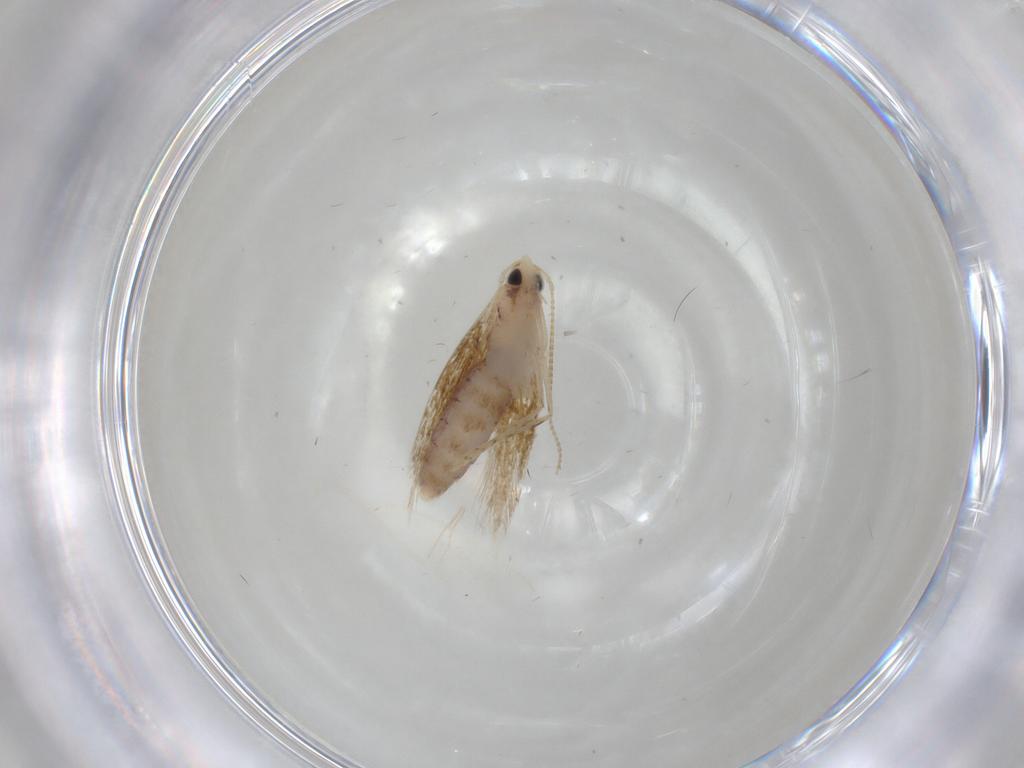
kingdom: Animalia
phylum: Arthropoda
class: Insecta
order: Lepidoptera
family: Lyonetiidae
